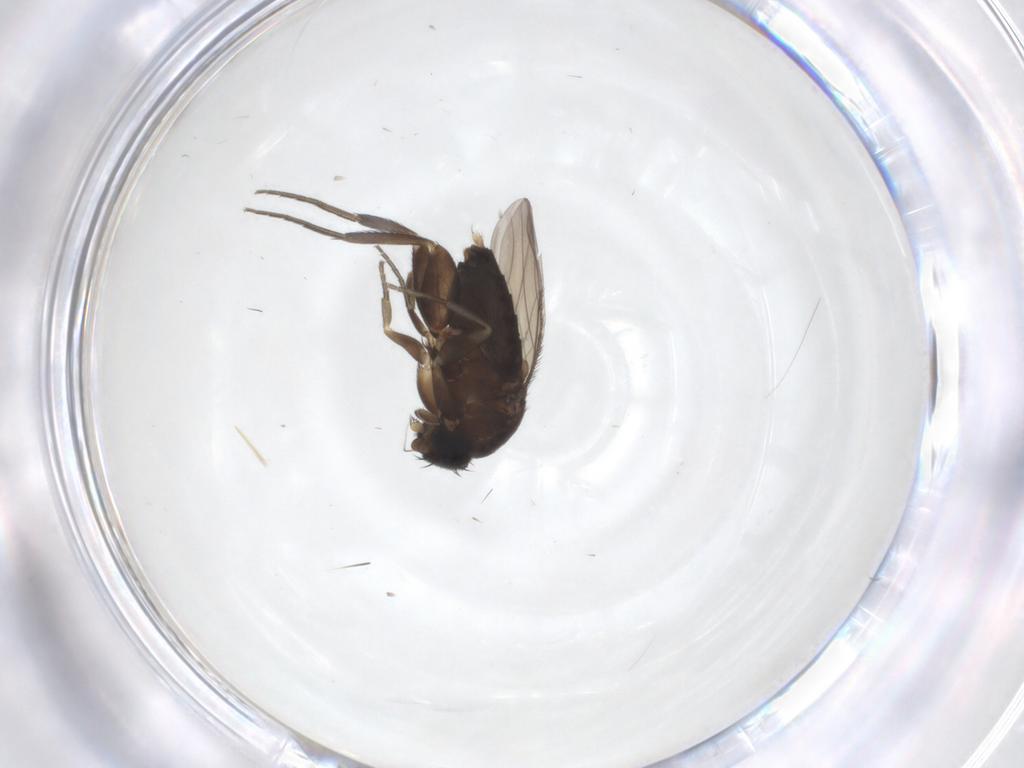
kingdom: Animalia
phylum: Arthropoda
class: Insecta
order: Diptera
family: Phoridae
